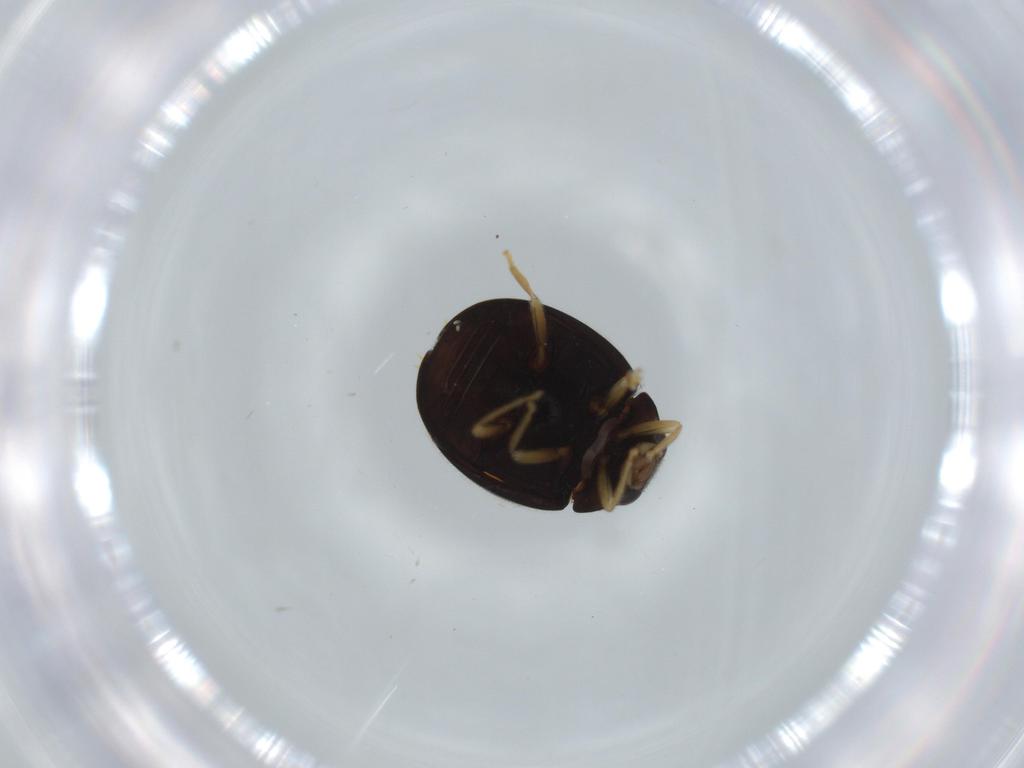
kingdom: Animalia
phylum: Arthropoda
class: Insecta
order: Coleoptera
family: Coccinellidae
